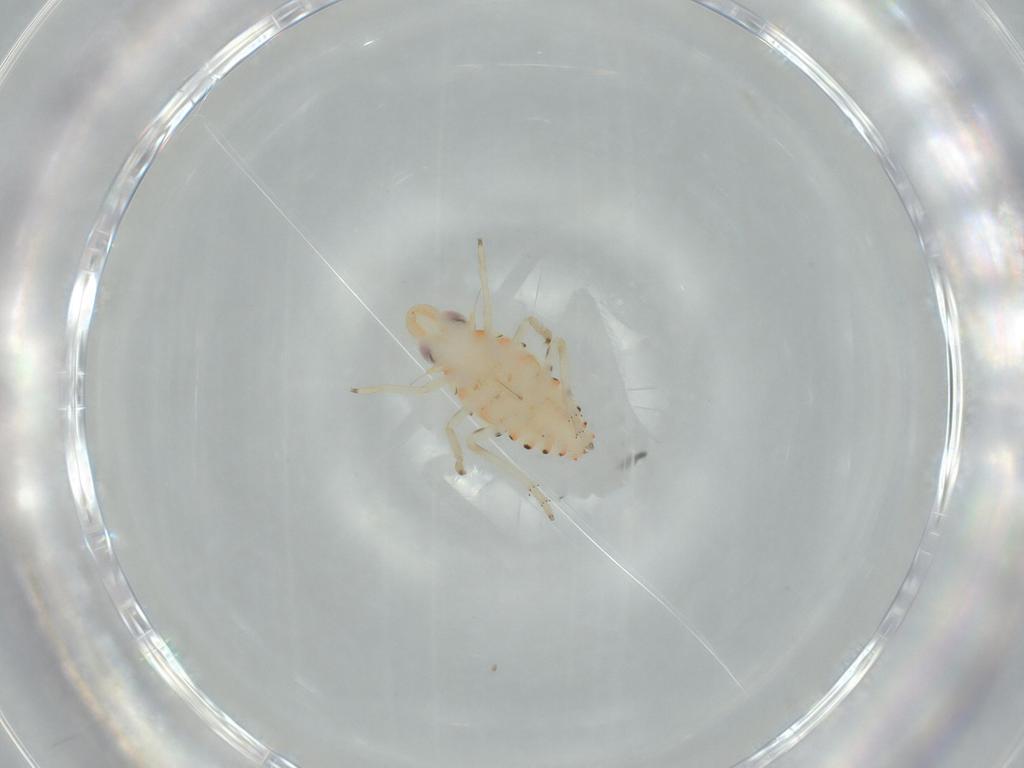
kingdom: Animalia
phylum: Arthropoda
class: Insecta
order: Hemiptera
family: Tropiduchidae
